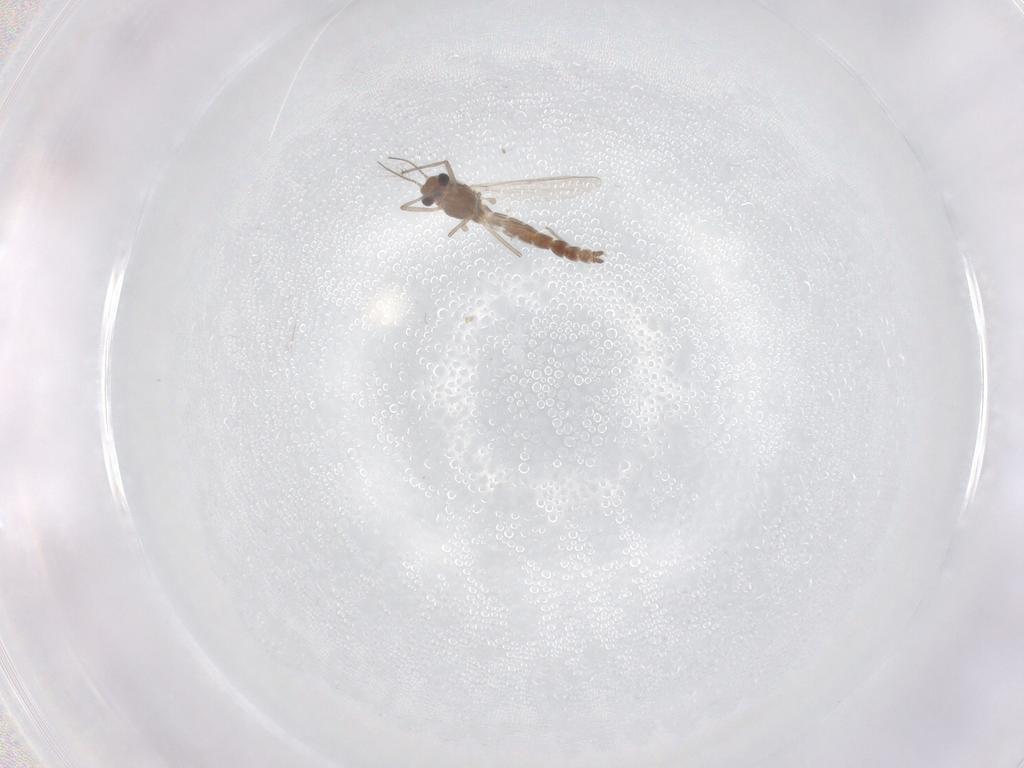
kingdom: Animalia
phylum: Arthropoda
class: Insecta
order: Diptera
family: Chironomidae
